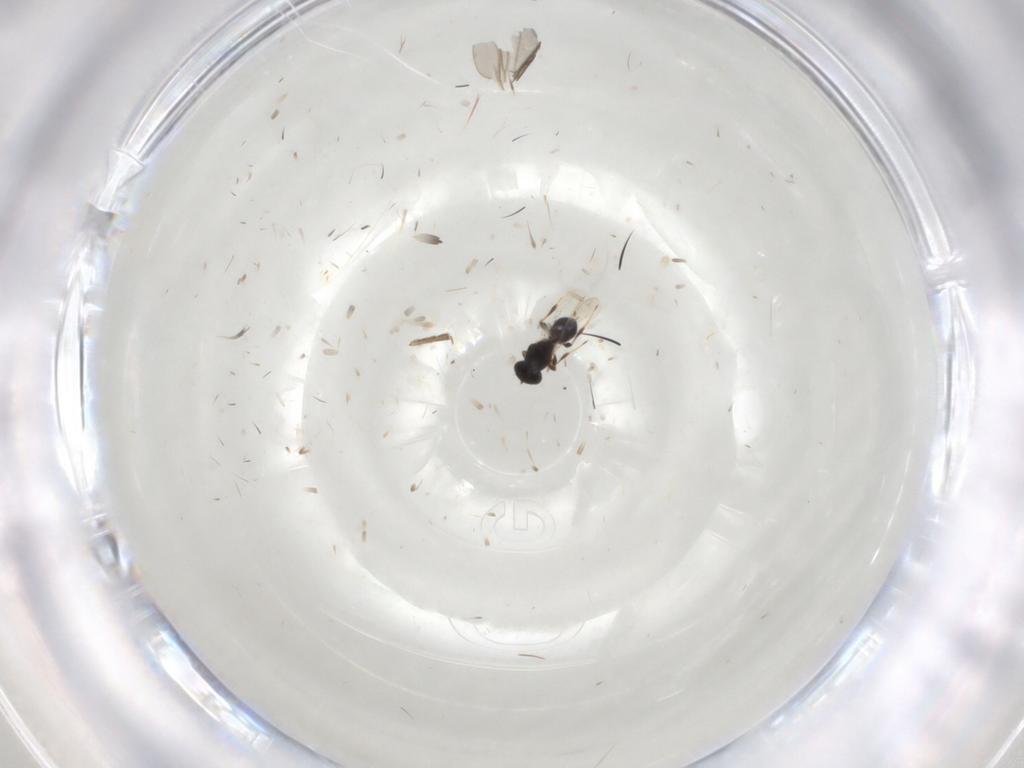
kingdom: Animalia
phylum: Arthropoda
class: Insecta
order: Hymenoptera
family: Platygastridae
